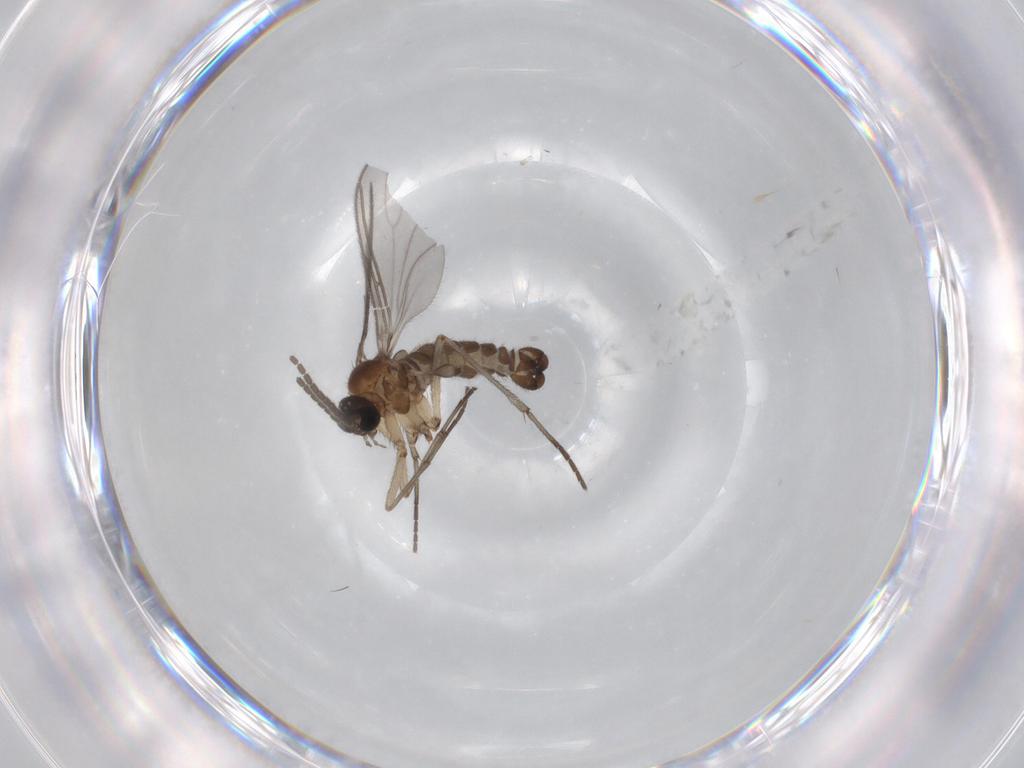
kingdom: Animalia
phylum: Arthropoda
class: Insecta
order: Diptera
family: Sciaridae
